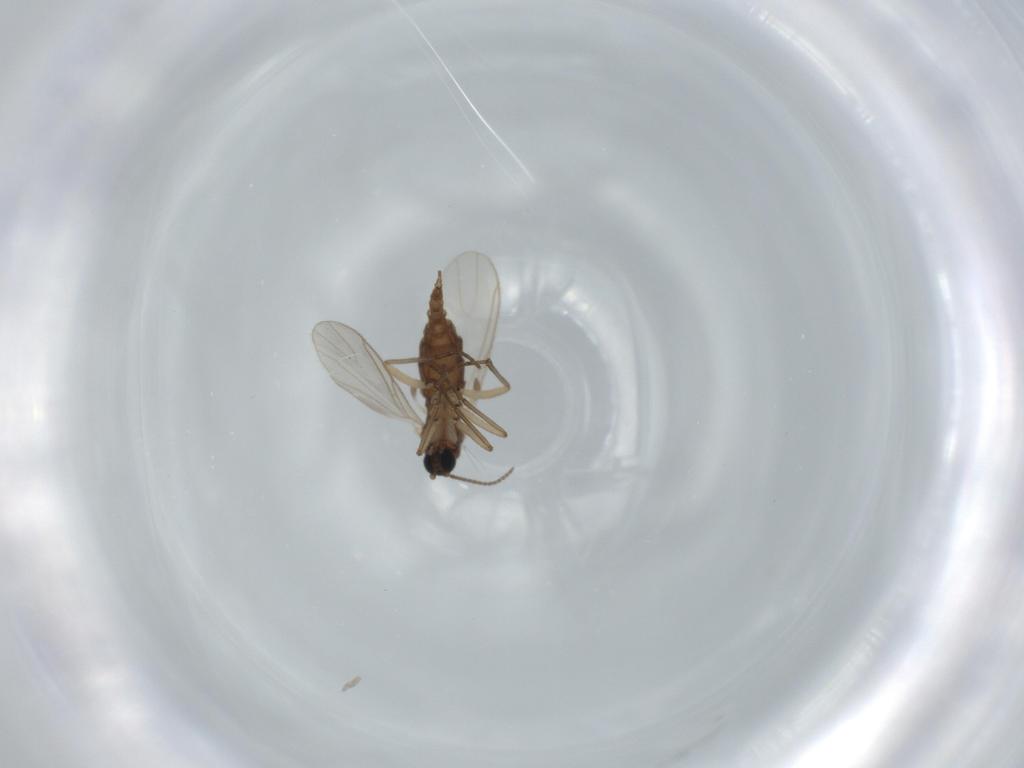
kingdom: Animalia
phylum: Arthropoda
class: Insecta
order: Diptera
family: Sciaridae
